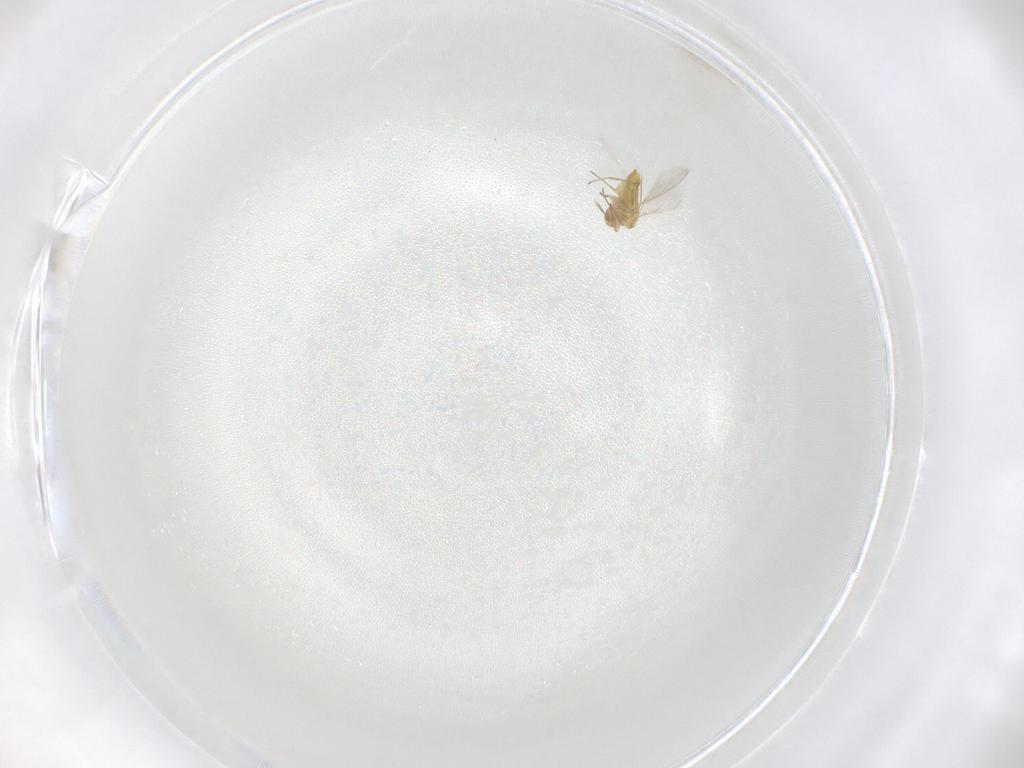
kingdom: Animalia
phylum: Arthropoda
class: Insecta
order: Hymenoptera
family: Aphelinidae
